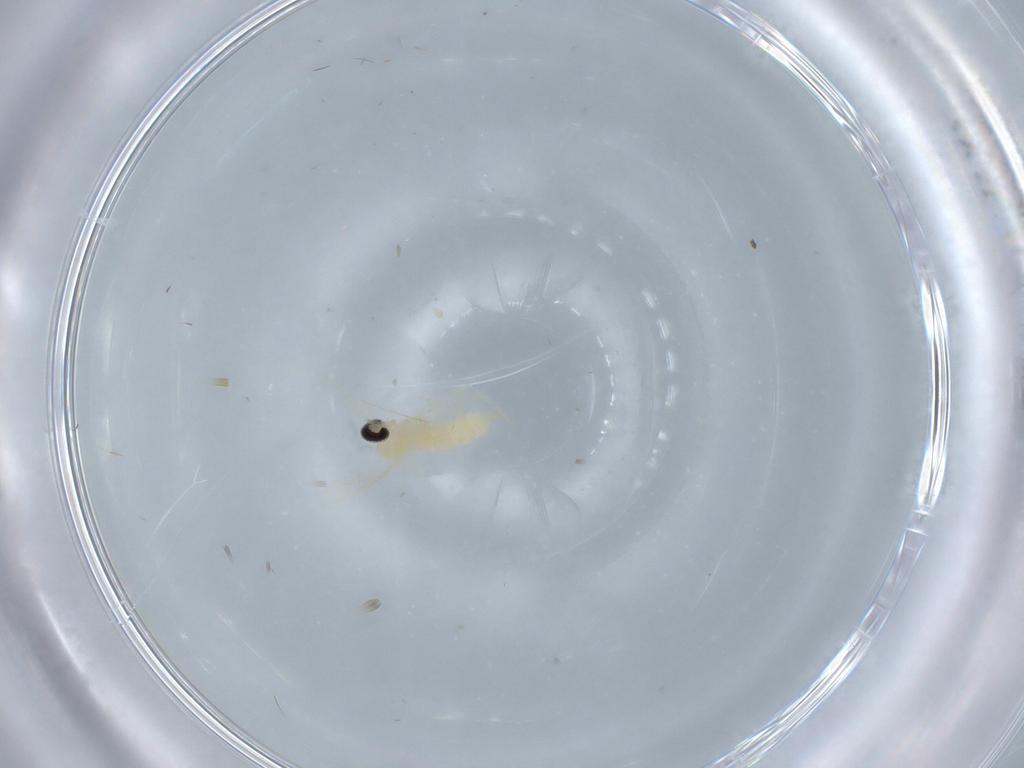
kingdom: Animalia
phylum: Arthropoda
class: Insecta
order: Diptera
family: Cecidomyiidae
